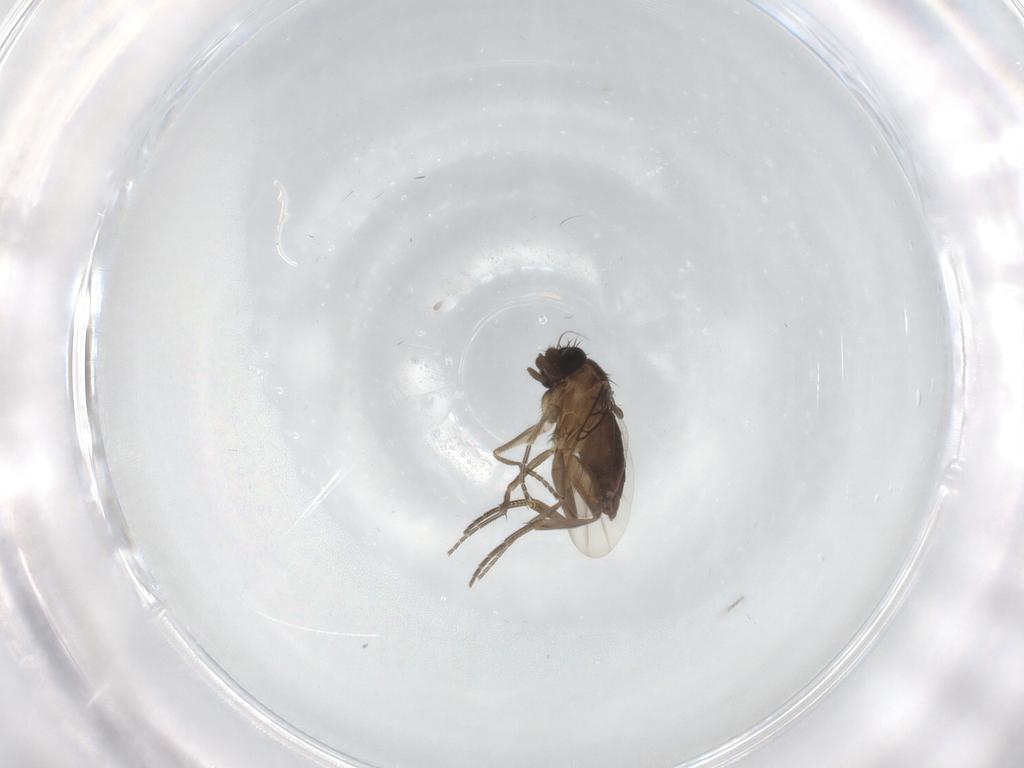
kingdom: Animalia
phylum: Arthropoda
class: Insecta
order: Diptera
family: Phoridae
